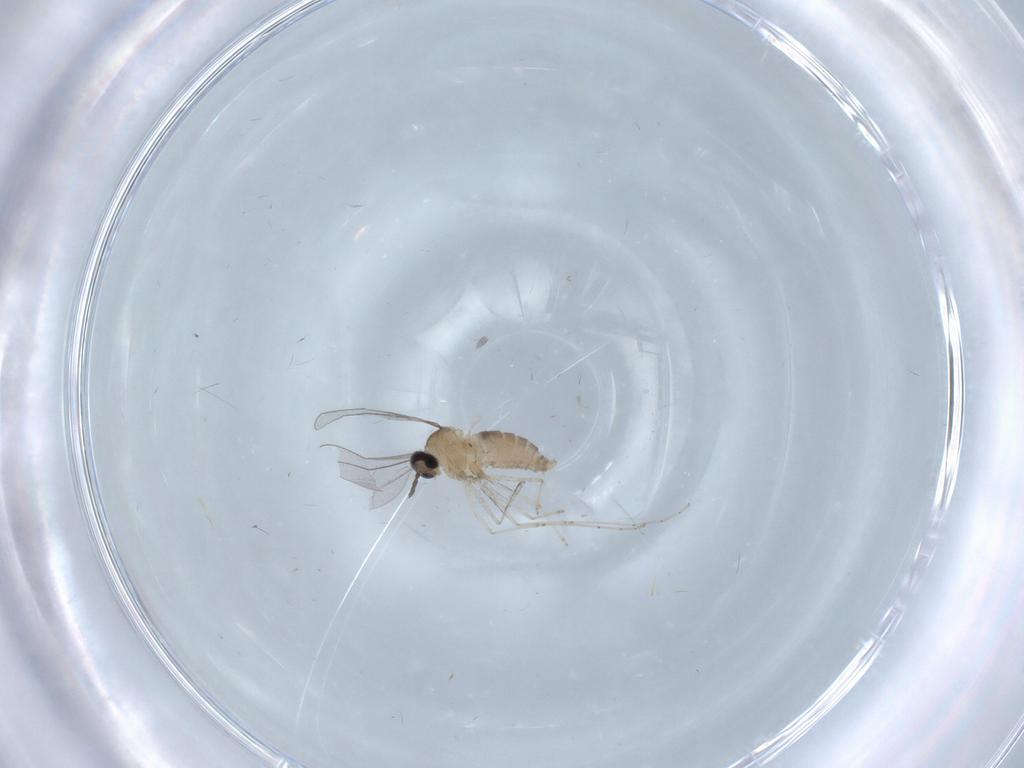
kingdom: Animalia
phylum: Arthropoda
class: Insecta
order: Diptera
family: Cecidomyiidae
